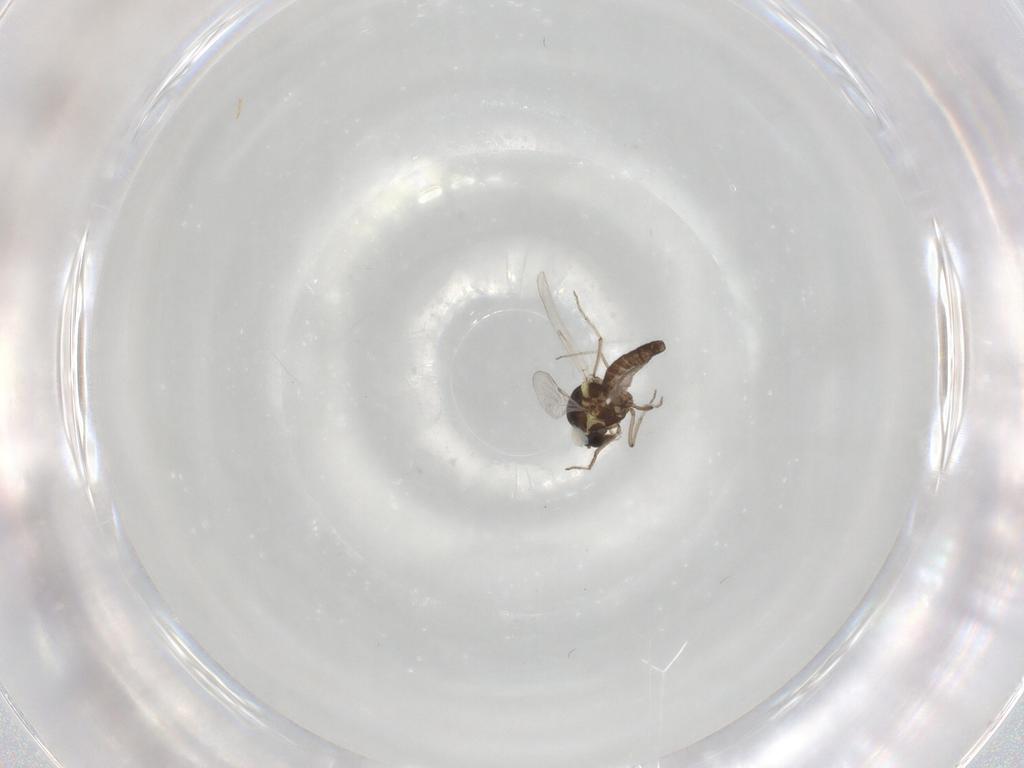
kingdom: Animalia
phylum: Arthropoda
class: Insecta
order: Diptera
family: Ceratopogonidae
